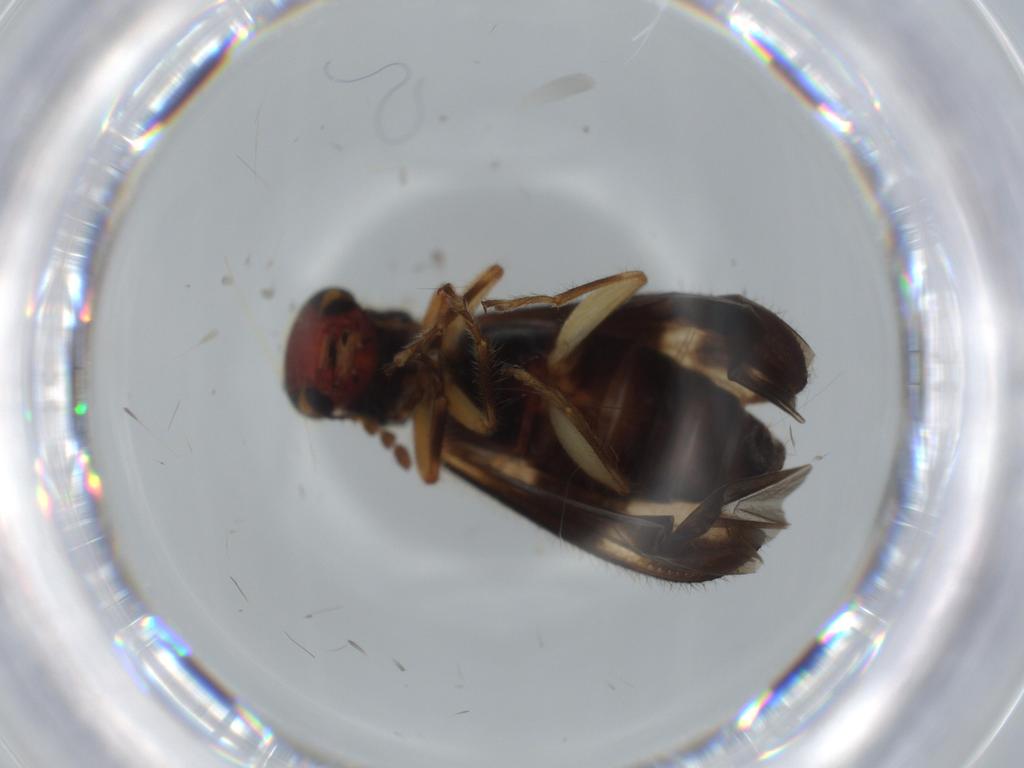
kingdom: Animalia
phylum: Arthropoda
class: Insecta
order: Coleoptera
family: Cleridae
